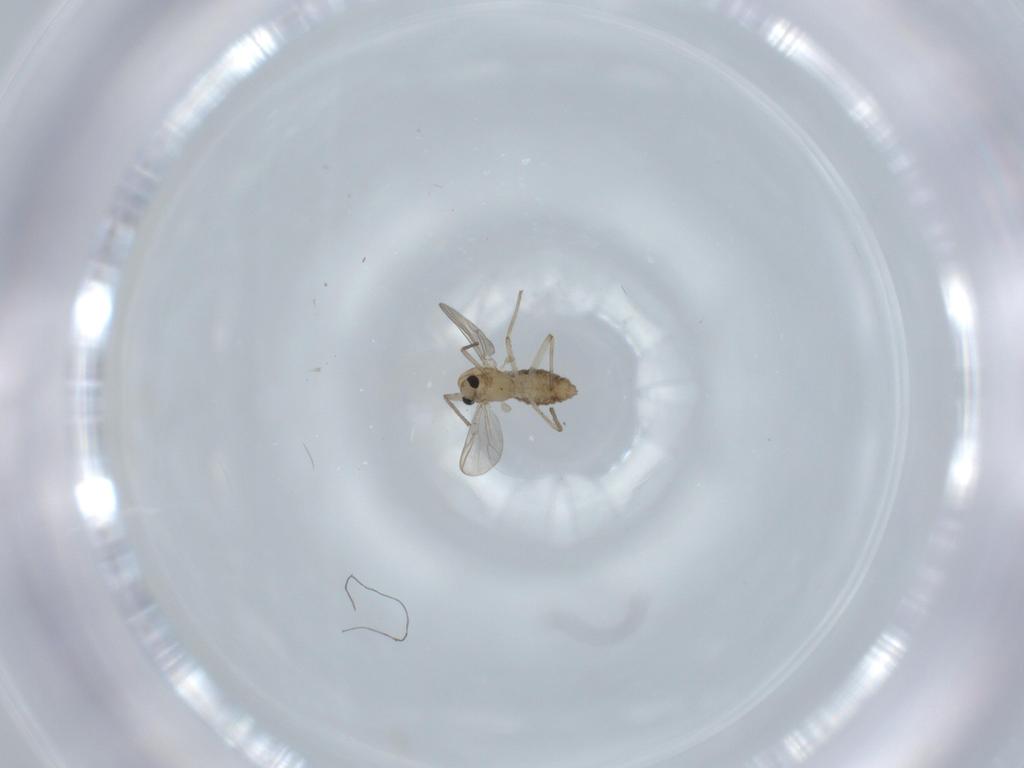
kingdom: Animalia
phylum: Arthropoda
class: Insecta
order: Diptera
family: Chironomidae
